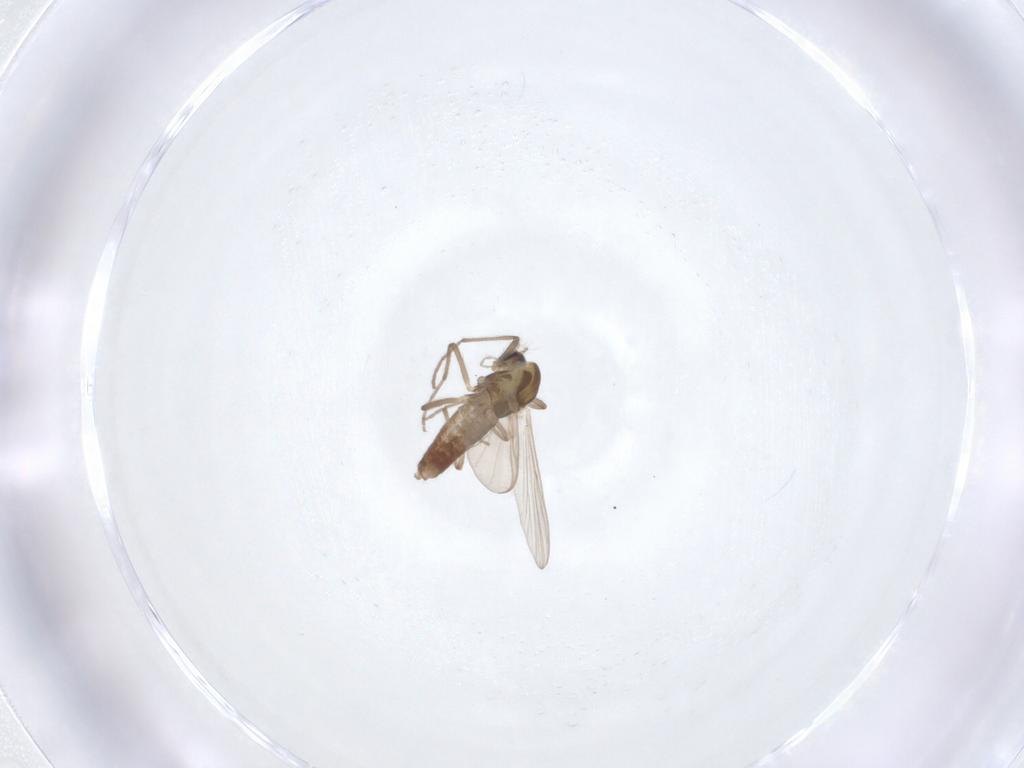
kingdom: Animalia
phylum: Arthropoda
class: Insecta
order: Diptera
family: Chironomidae
